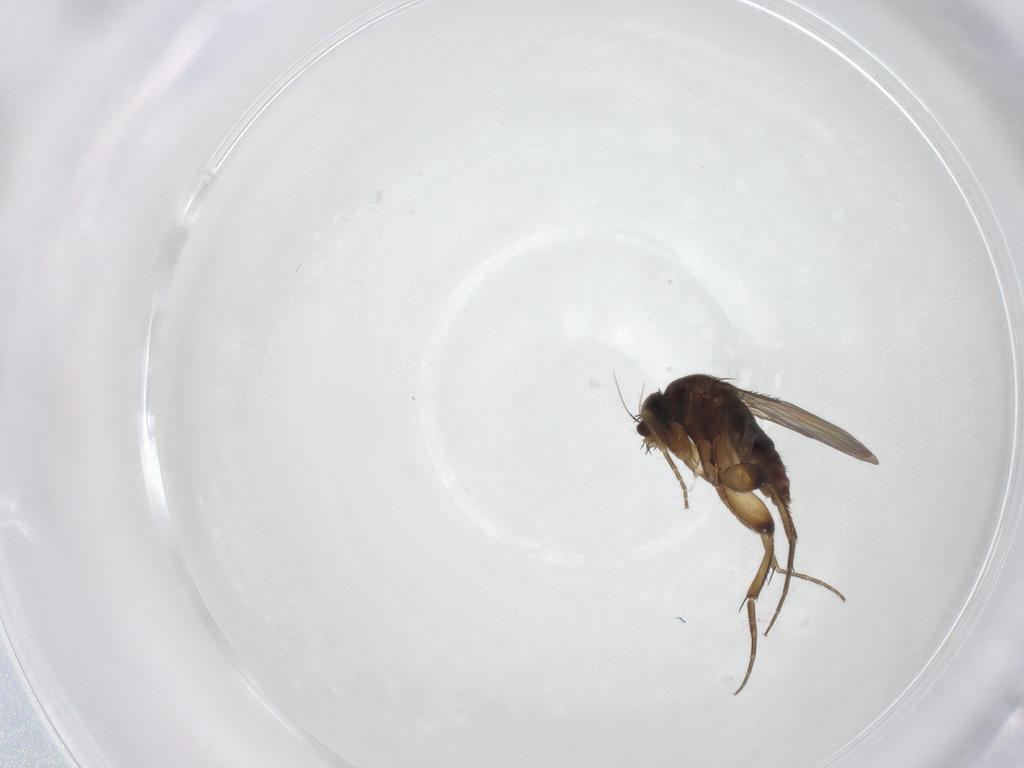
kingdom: Animalia
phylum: Arthropoda
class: Insecta
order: Diptera
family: Phoridae
